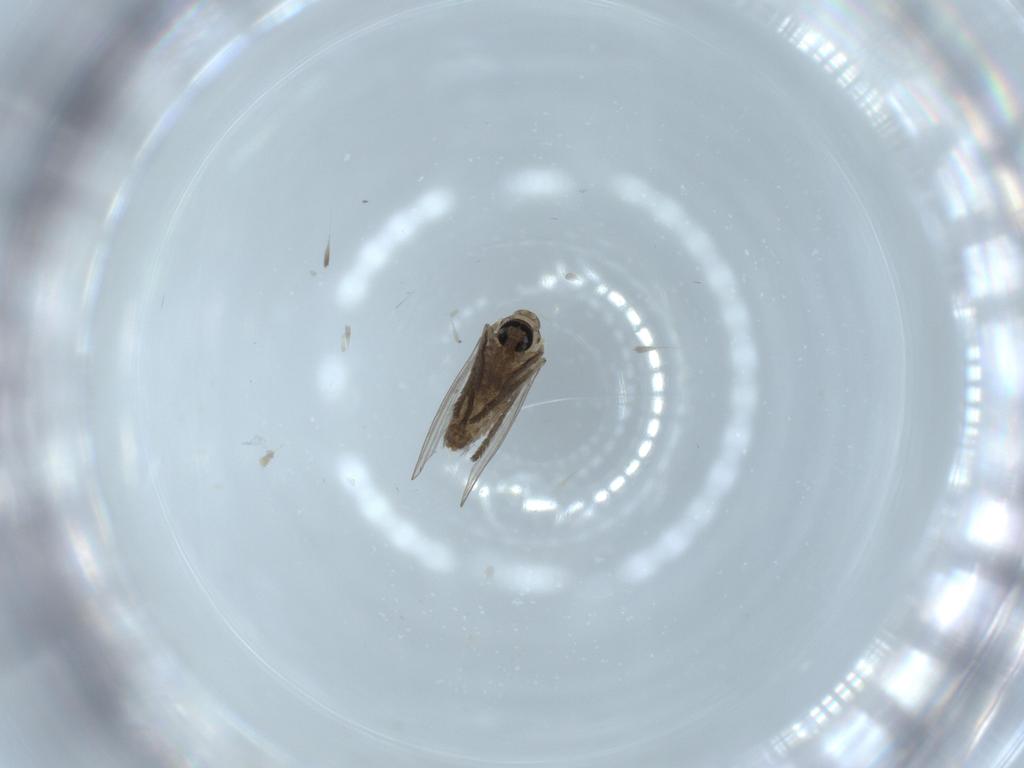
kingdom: Animalia
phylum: Arthropoda
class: Insecta
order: Diptera
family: Psychodidae
